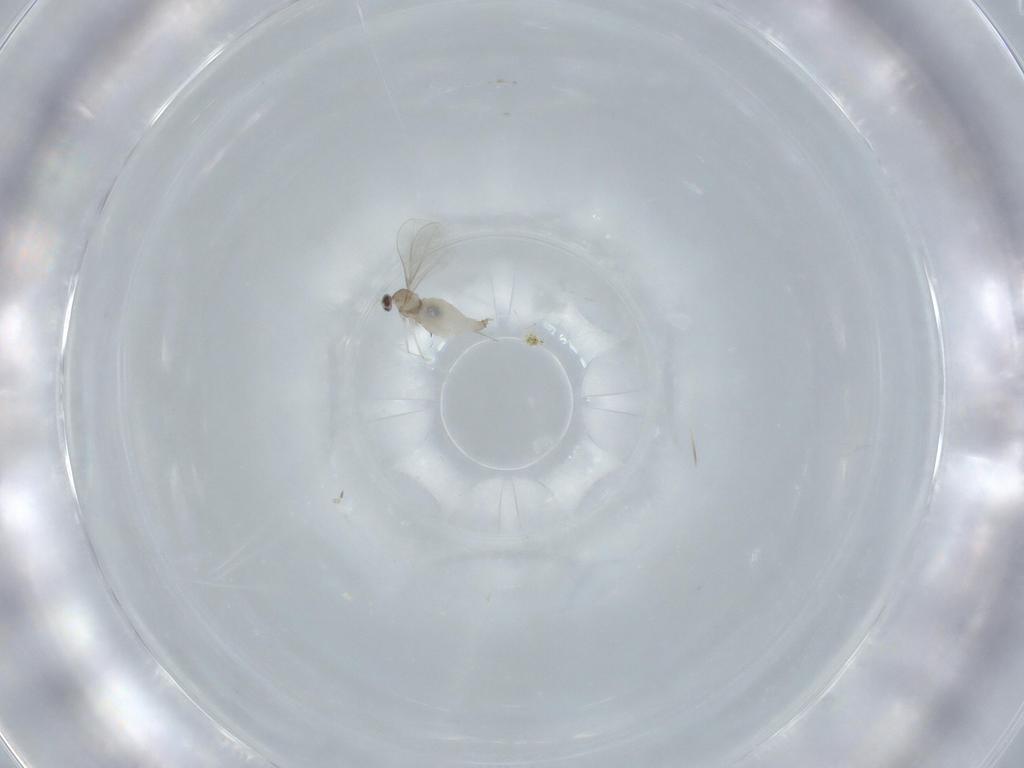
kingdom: Animalia
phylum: Arthropoda
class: Insecta
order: Diptera
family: Cecidomyiidae
